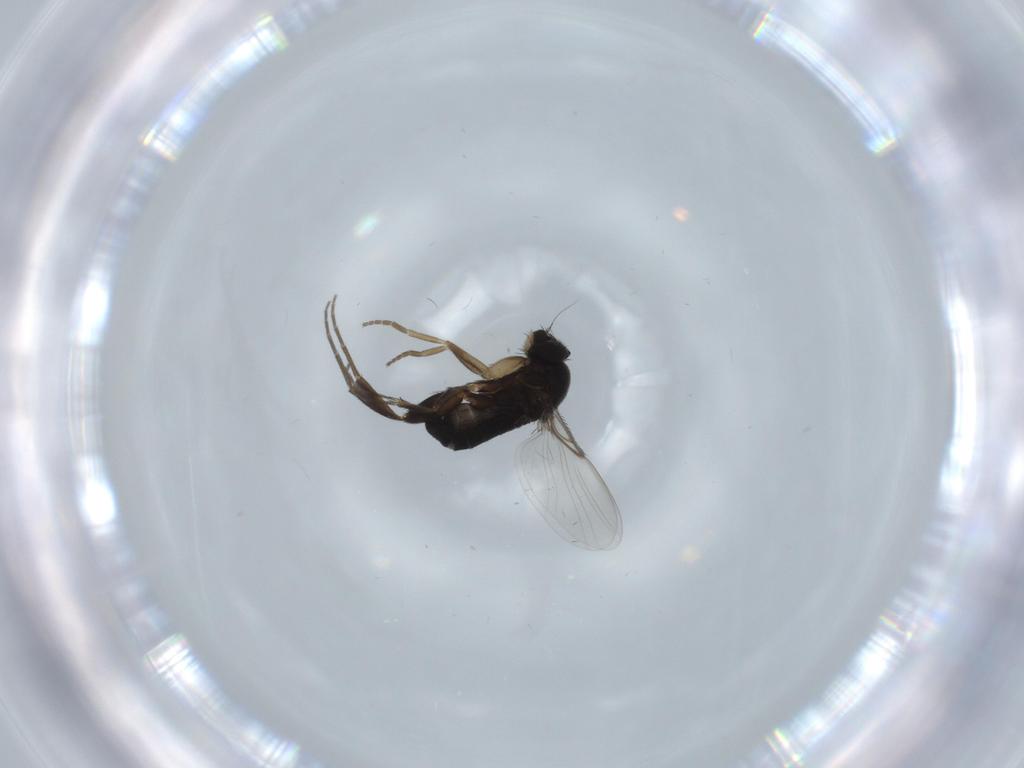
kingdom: Animalia
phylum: Arthropoda
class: Insecta
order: Diptera
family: Phoridae
